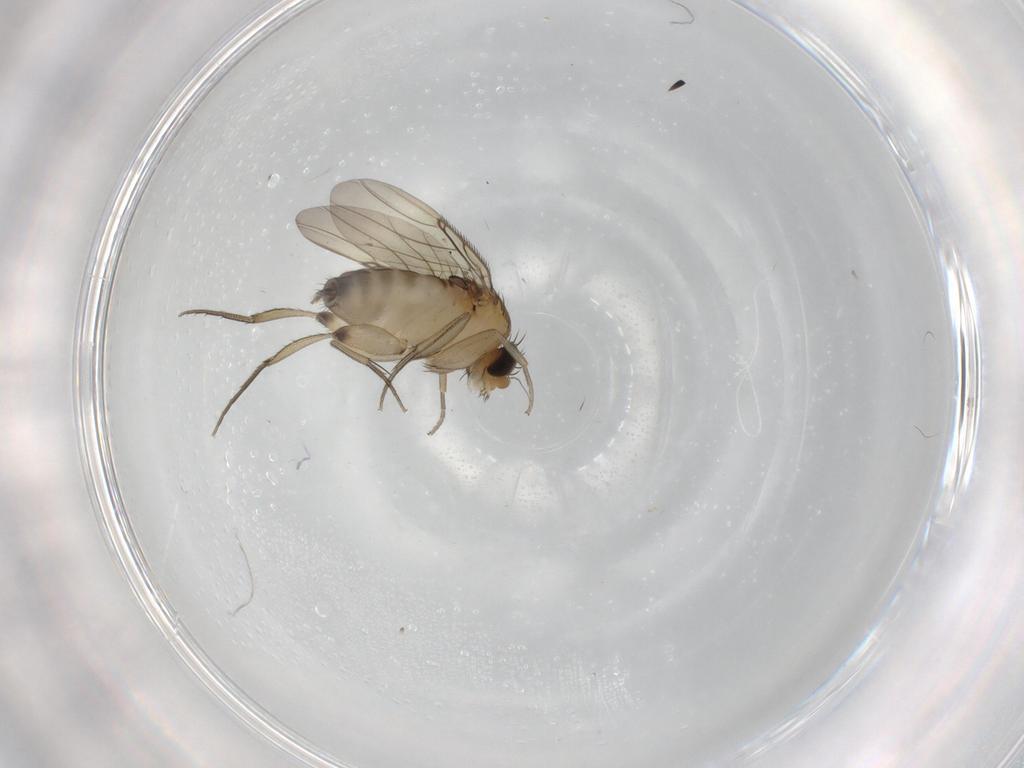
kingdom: Animalia
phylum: Arthropoda
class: Insecta
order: Diptera
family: Phoridae
